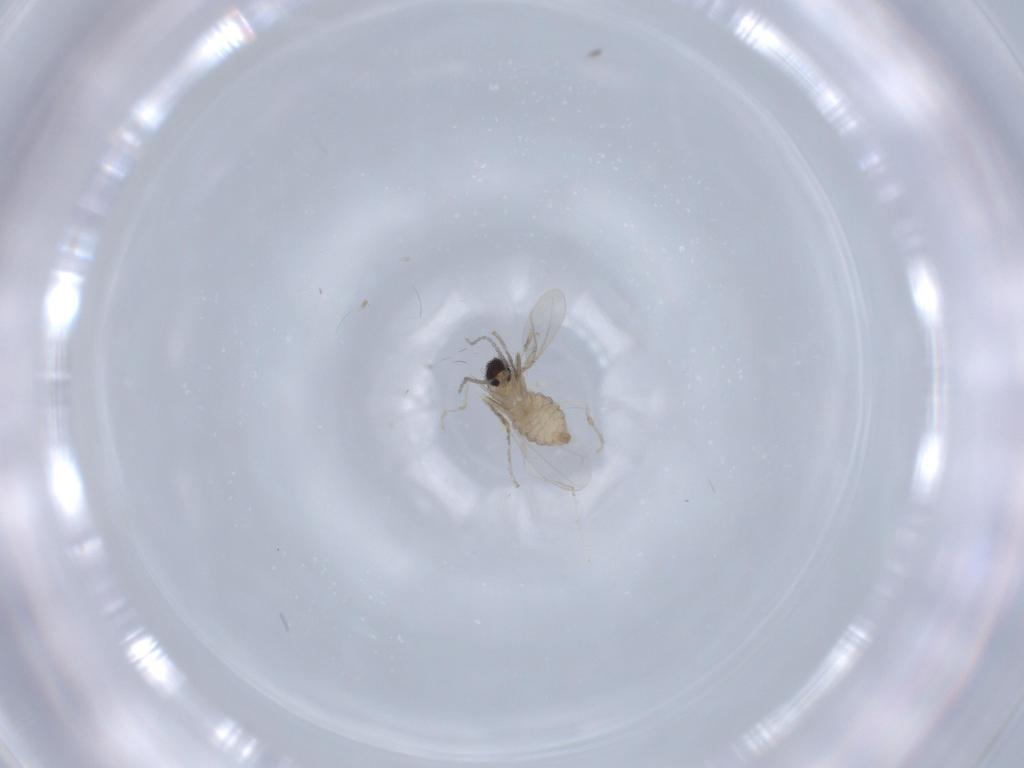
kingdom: Animalia
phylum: Arthropoda
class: Insecta
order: Diptera
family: Cecidomyiidae
